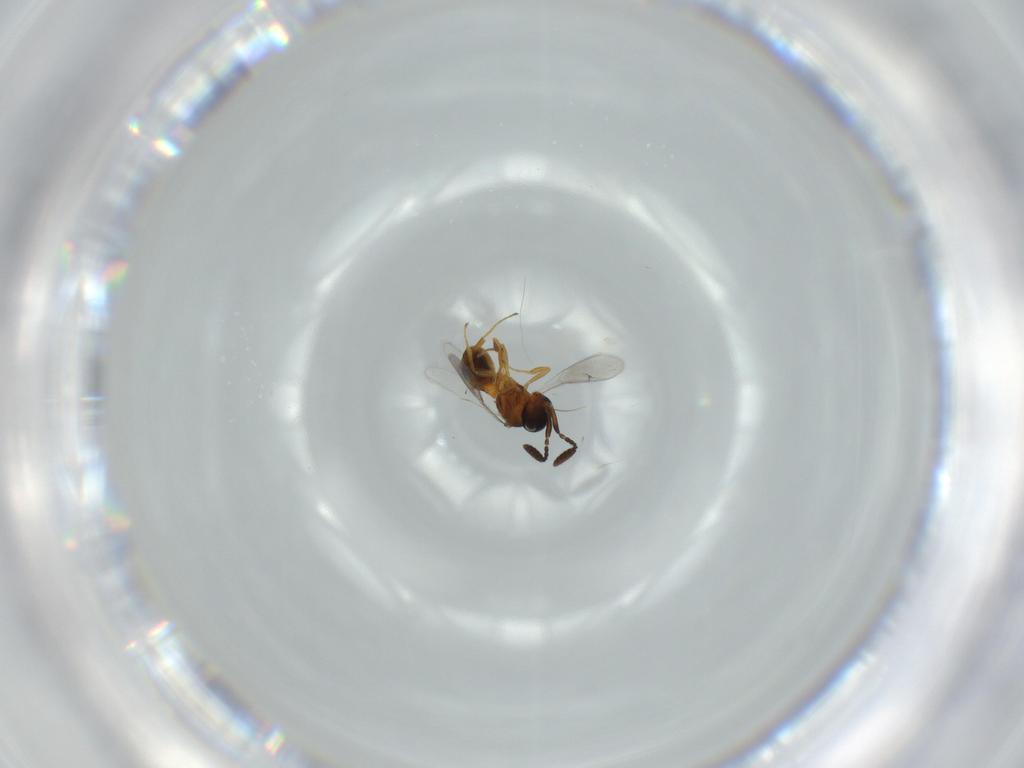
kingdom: Animalia
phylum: Arthropoda
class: Insecta
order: Hymenoptera
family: Scelionidae
